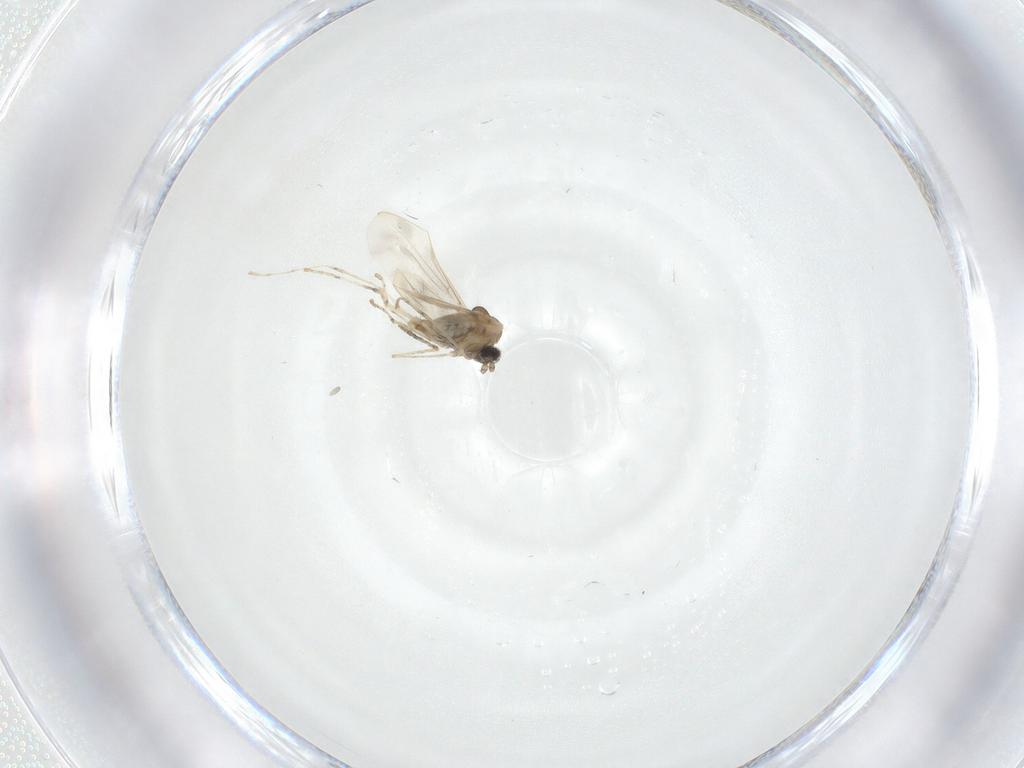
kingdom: Animalia
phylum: Arthropoda
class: Insecta
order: Diptera
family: Cecidomyiidae
